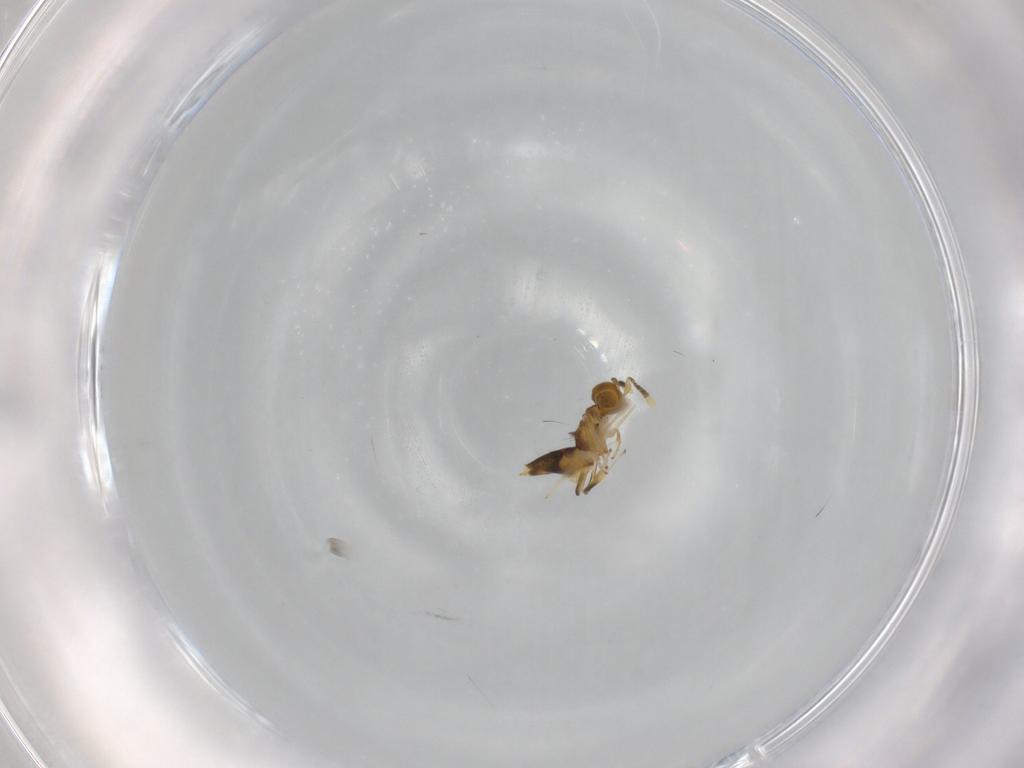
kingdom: Animalia
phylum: Arthropoda
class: Insecta
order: Hymenoptera
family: Encyrtidae
